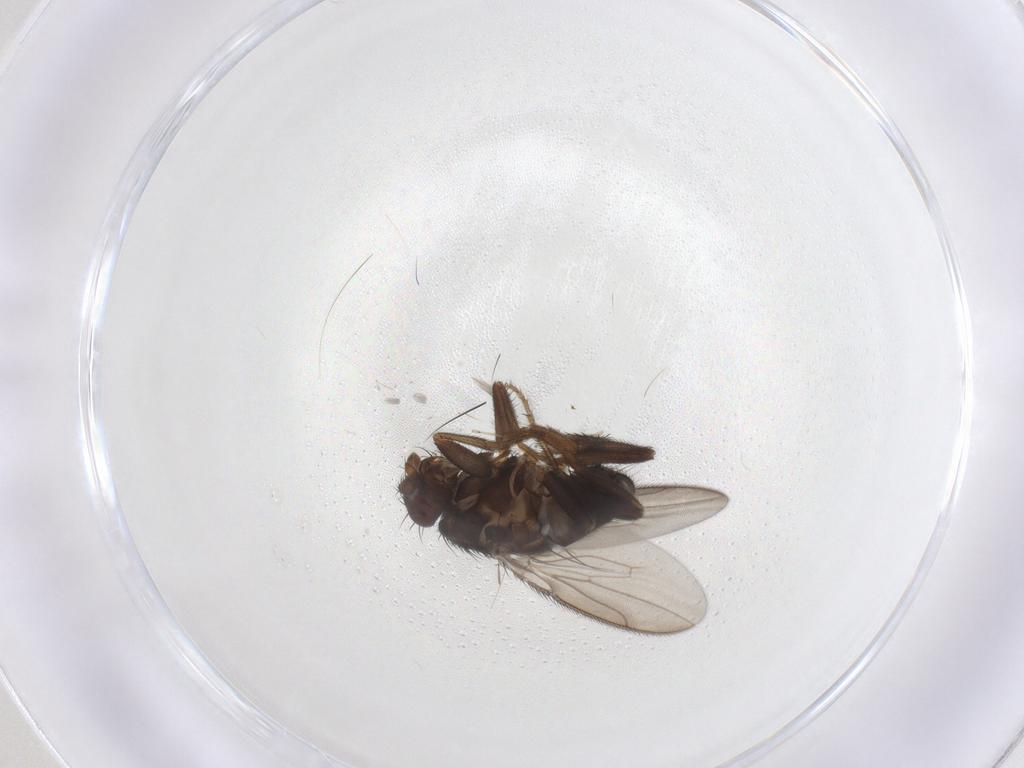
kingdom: Animalia
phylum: Arthropoda
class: Insecta
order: Diptera
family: Sphaeroceridae
